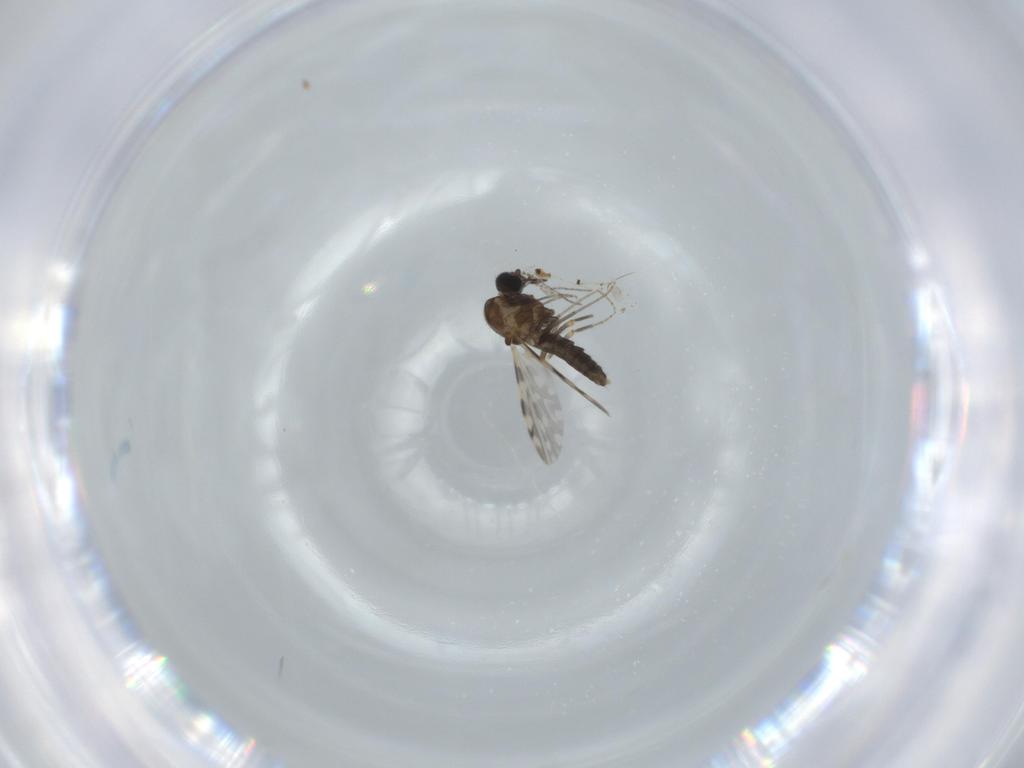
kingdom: Animalia
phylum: Arthropoda
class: Insecta
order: Diptera
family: Ceratopogonidae
